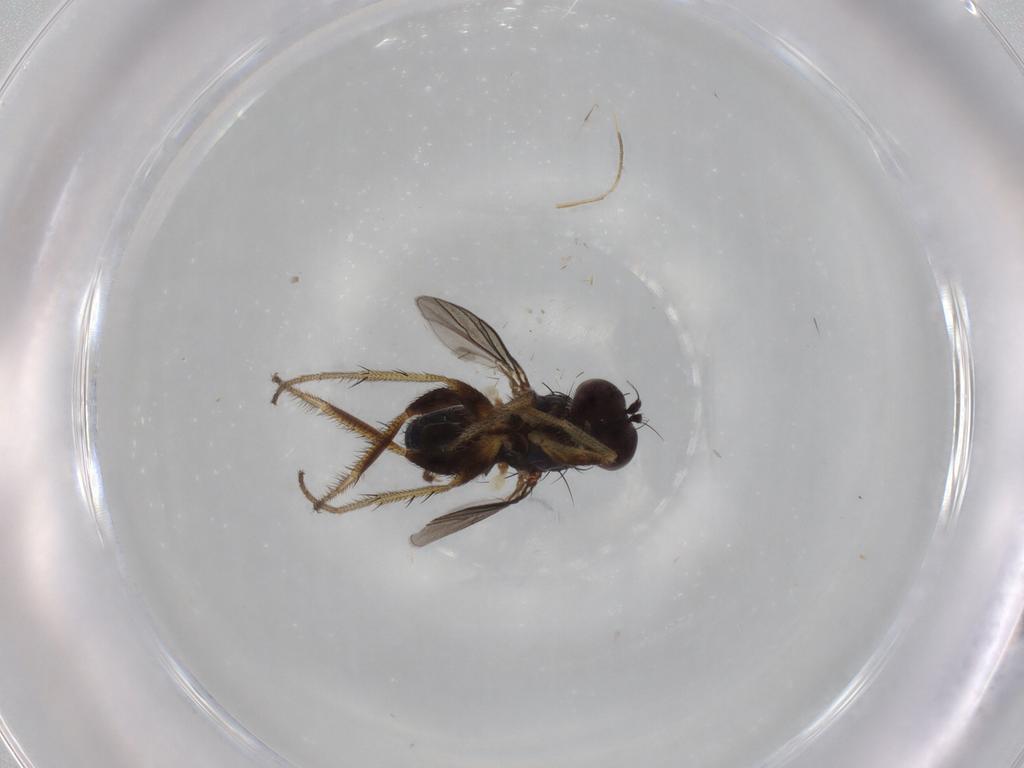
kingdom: Animalia
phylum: Arthropoda
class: Insecta
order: Diptera
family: Dolichopodidae
